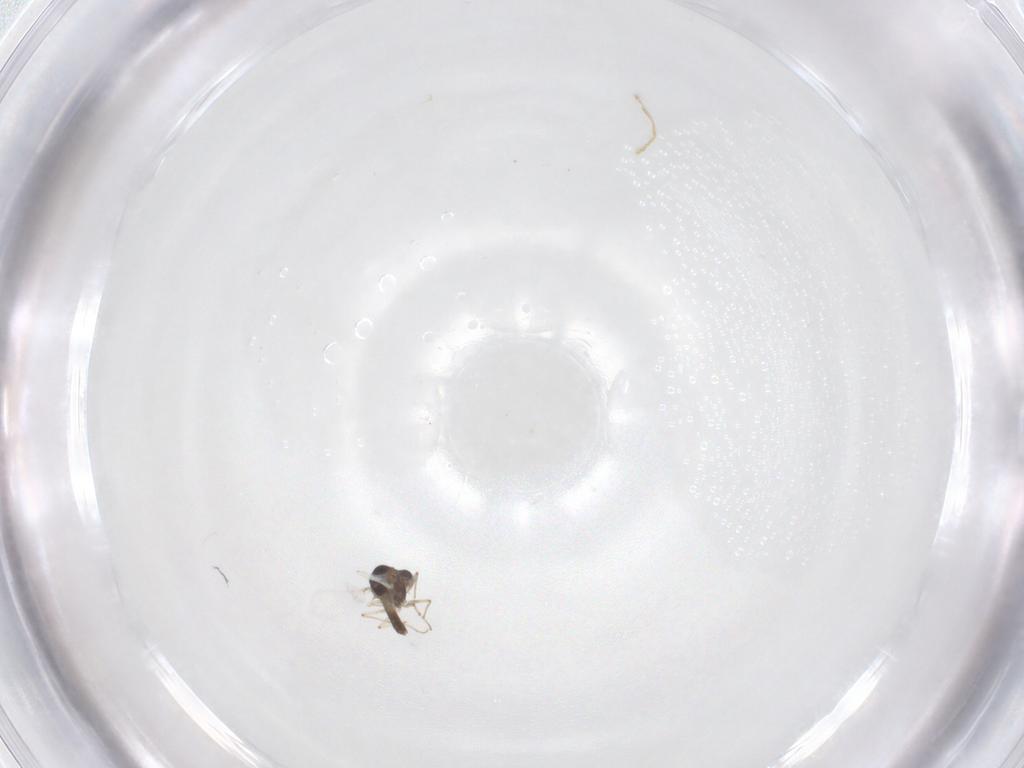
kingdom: Animalia
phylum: Arthropoda
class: Insecta
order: Diptera
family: Chironomidae
